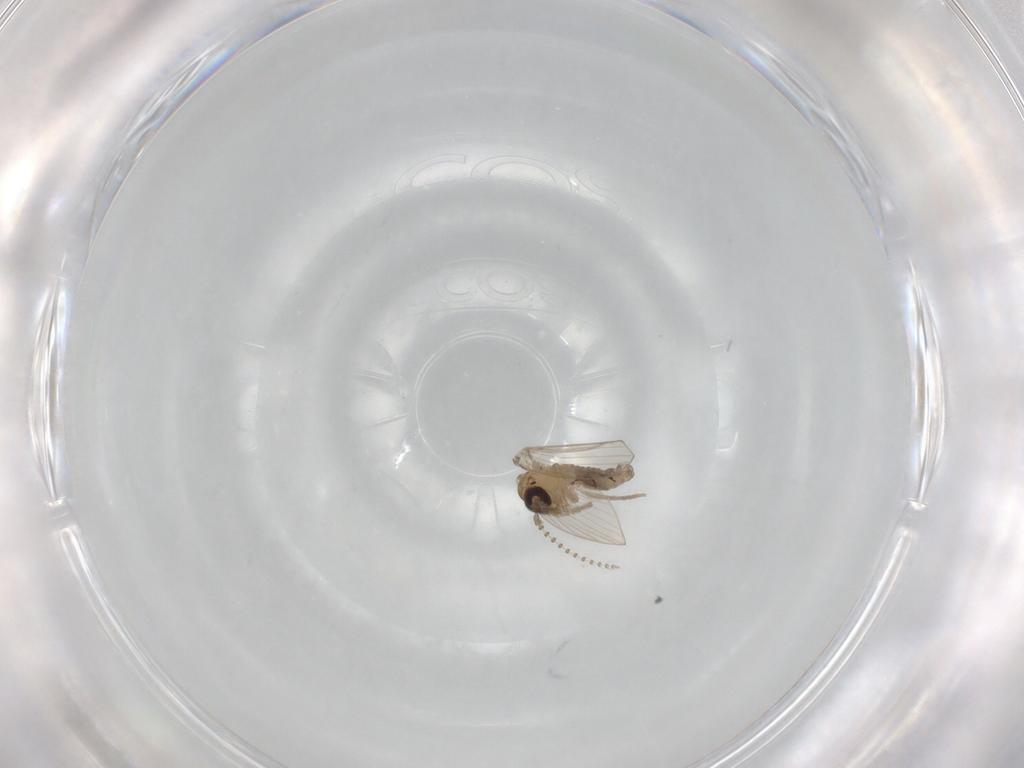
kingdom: Animalia
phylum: Arthropoda
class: Insecta
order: Diptera
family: Psychodidae
